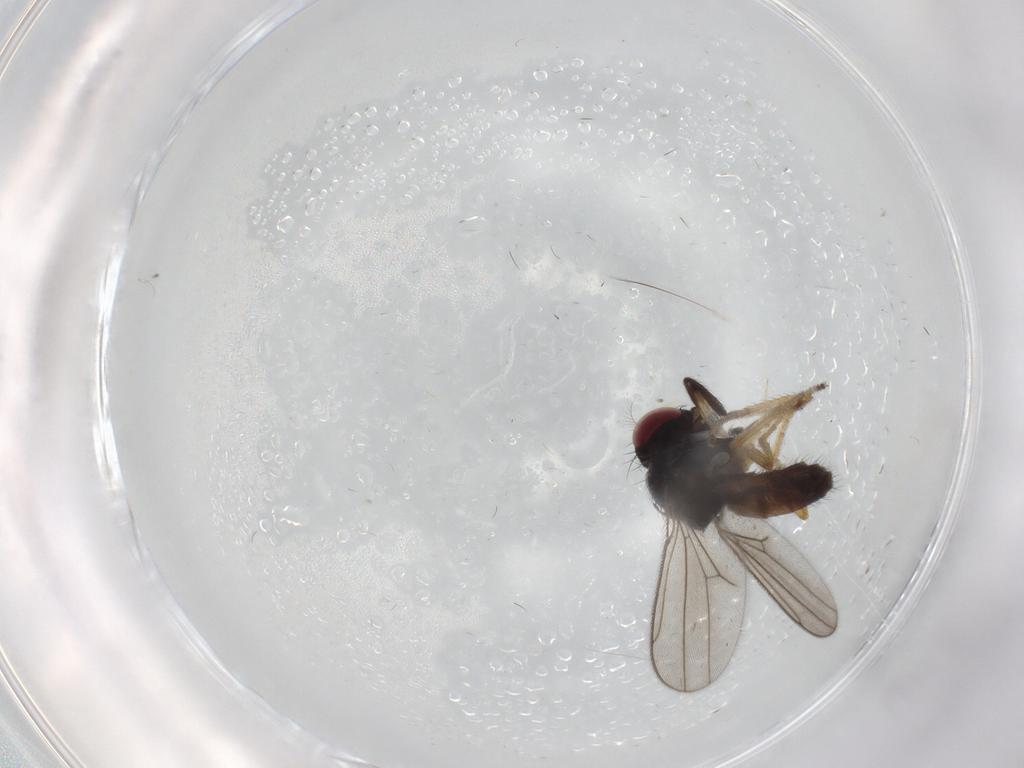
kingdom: Animalia
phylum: Arthropoda
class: Insecta
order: Diptera
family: Ephydridae
